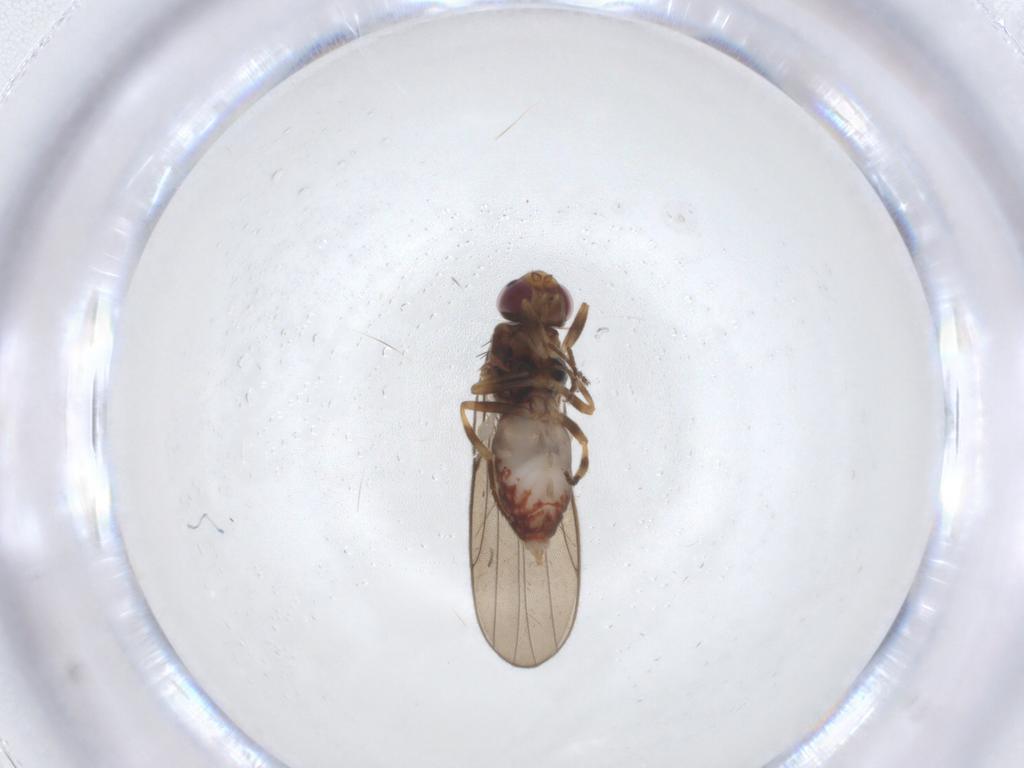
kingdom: Animalia
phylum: Arthropoda
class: Insecta
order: Diptera
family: Chloropidae
